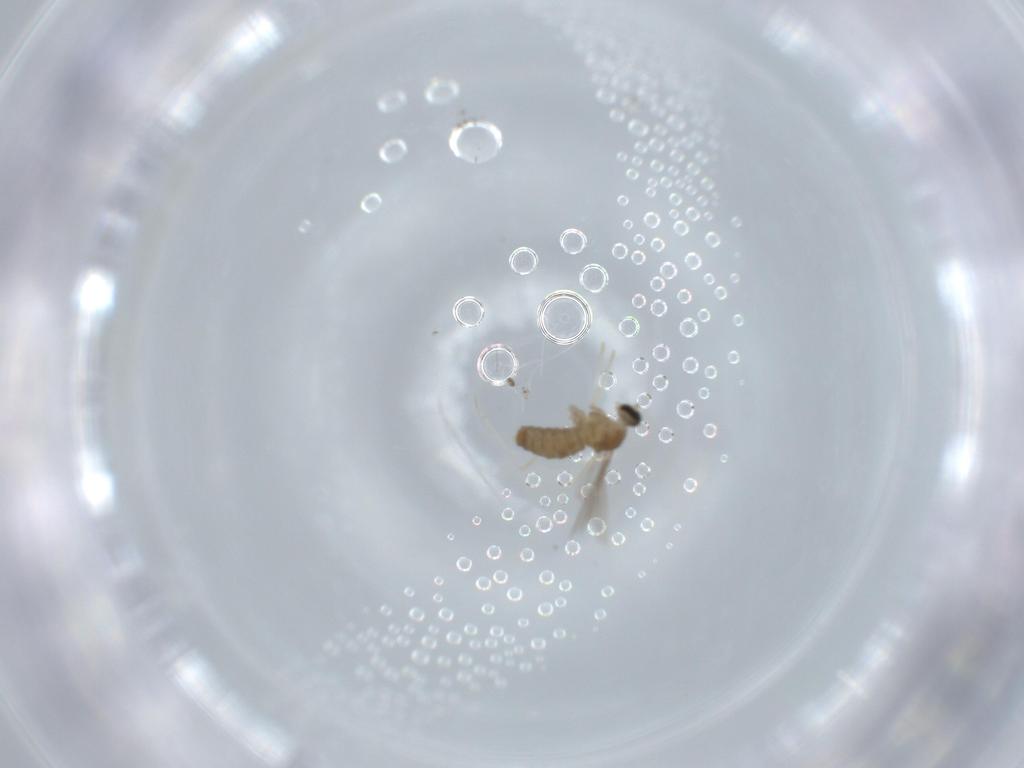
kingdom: Animalia
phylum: Arthropoda
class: Insecta
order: Diptera
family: Cecidomyiidae
